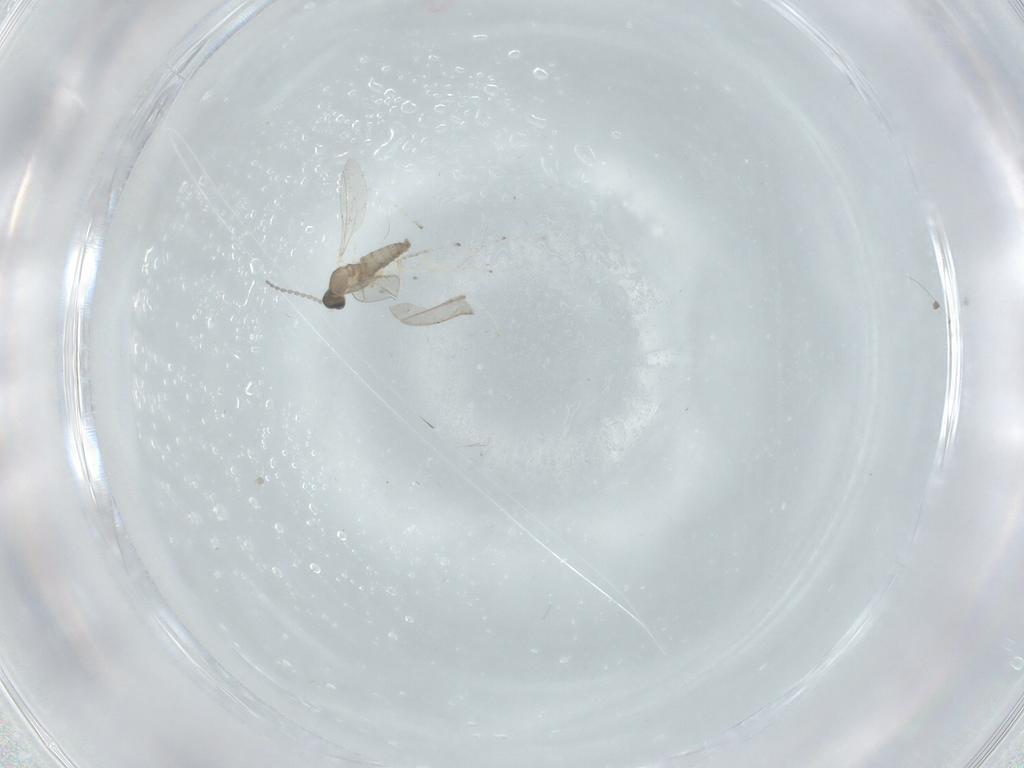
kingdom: Animalia
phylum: Arthropoda
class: Insecta
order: Diptera
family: Cecidomyiidae
